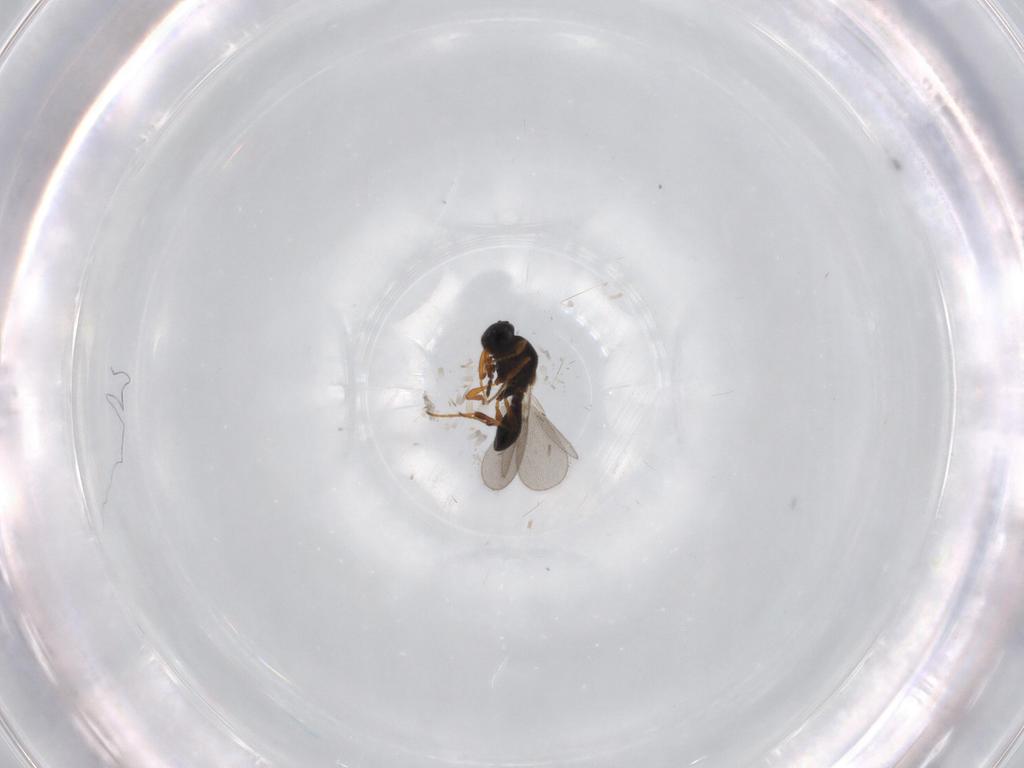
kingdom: Animalia
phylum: Arthropoda
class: Insecta
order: Hymenoptera
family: Platygastridae
